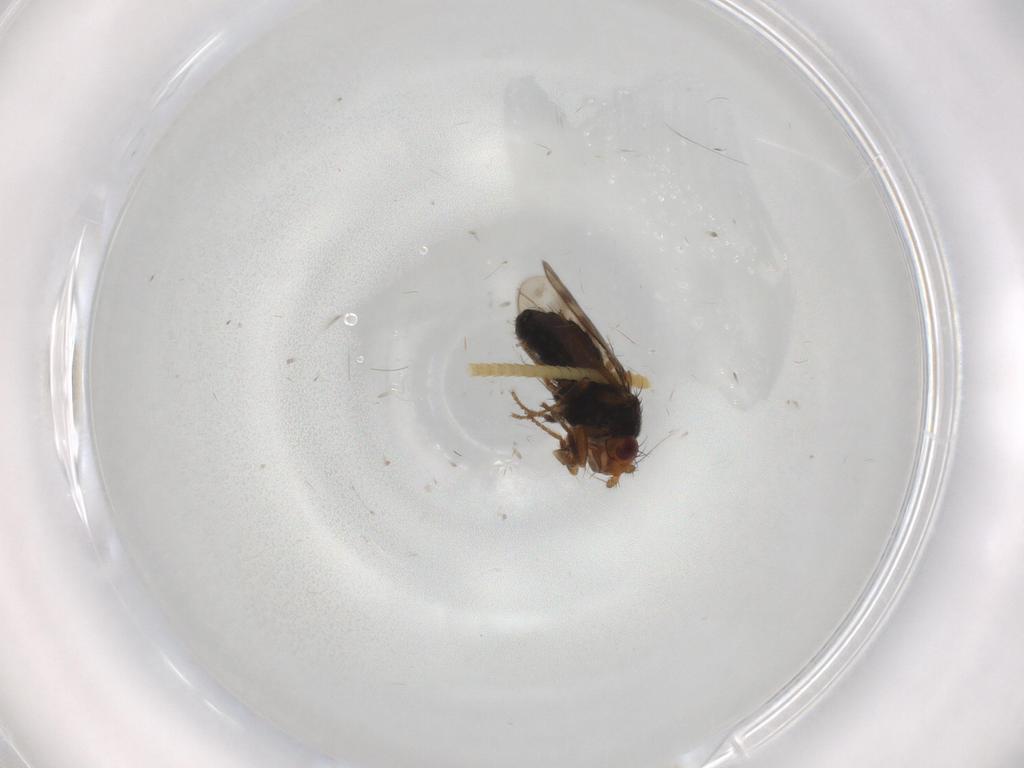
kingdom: Animalia
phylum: Arthropoda
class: Insecta
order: Diptera
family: Sphaeroceridae
